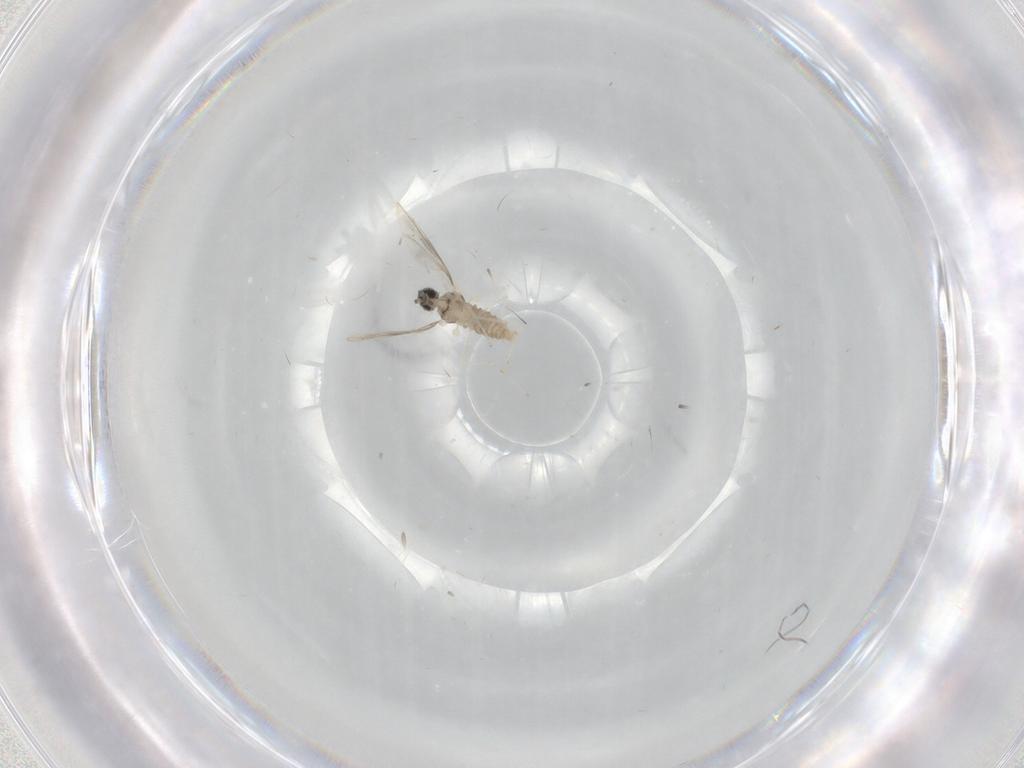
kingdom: Animalia
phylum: Arthropoda
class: Insecta
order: Diptera
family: Cecidomyiidae
